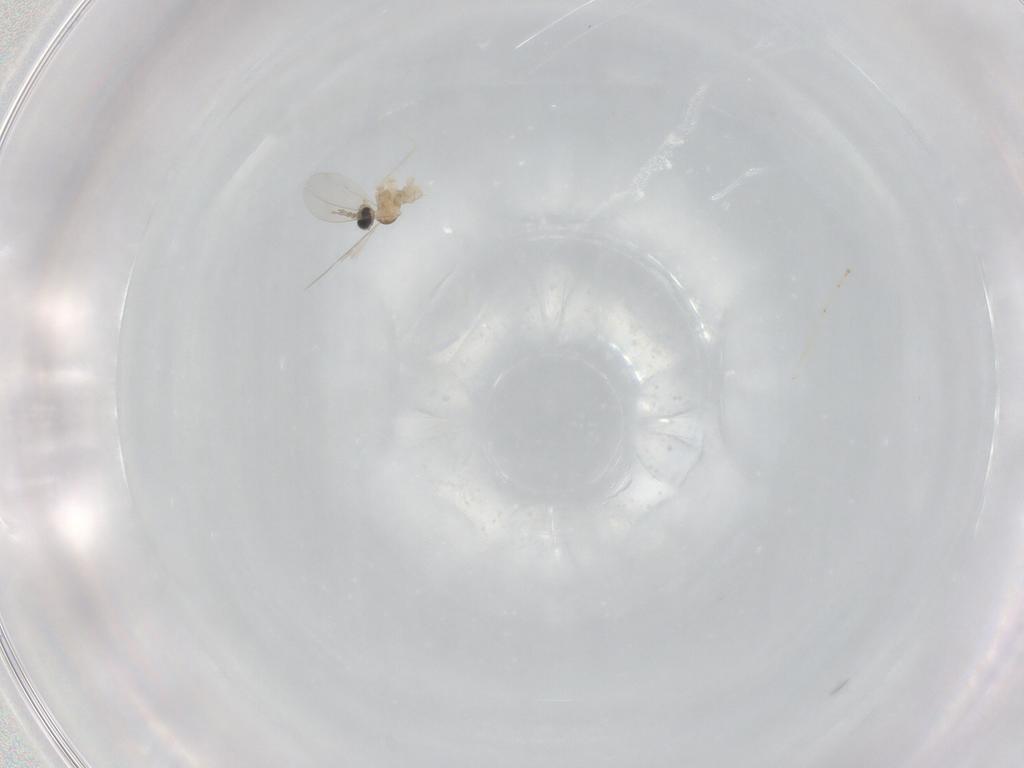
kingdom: Animalia
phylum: Arthropoda
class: Insecta
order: Diptera
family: Cecidomyiidae
